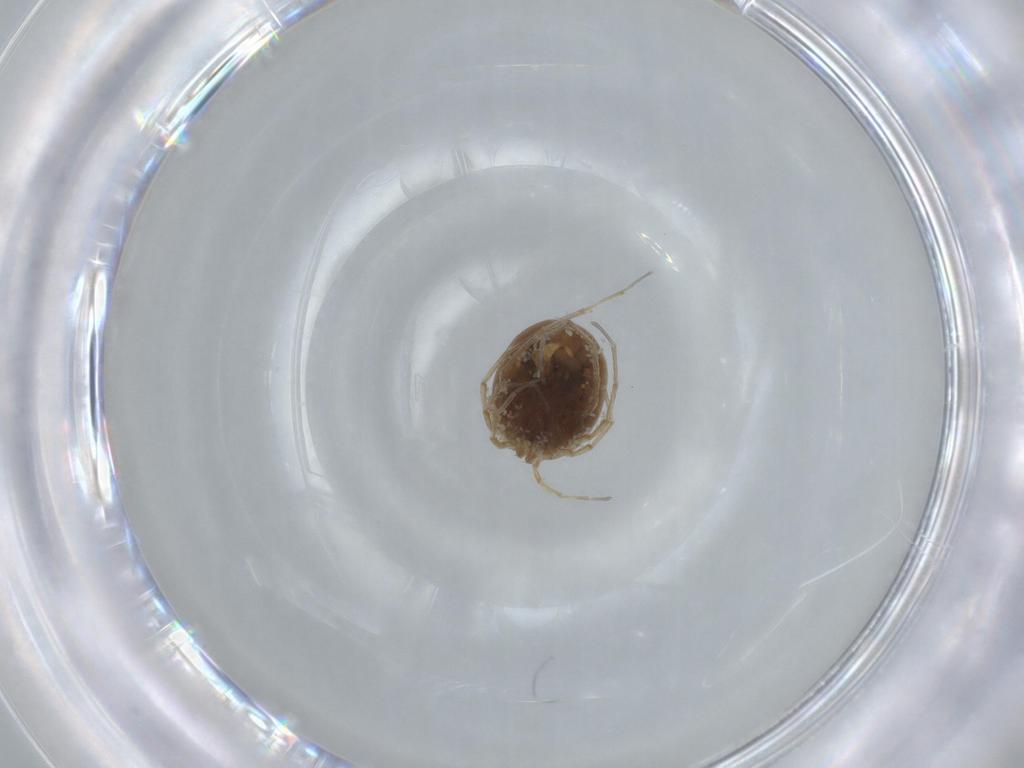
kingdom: Animalia
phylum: Arthropoda
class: Arachnida
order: Trombidiformes
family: Hygrobatidae
